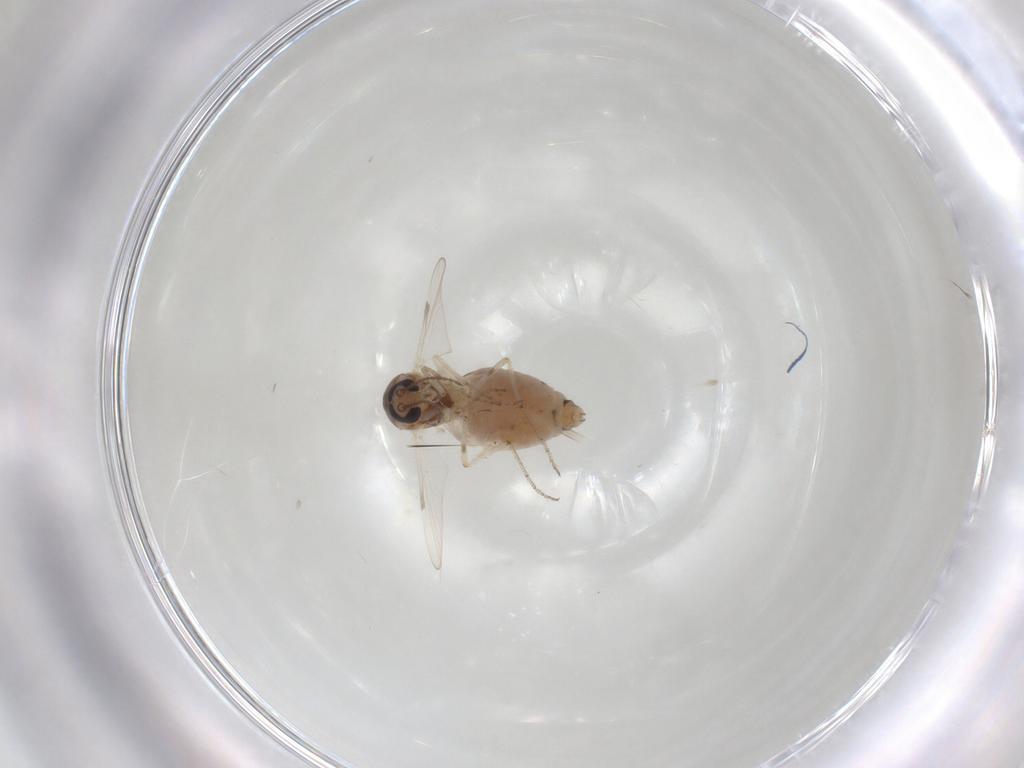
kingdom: Animalia
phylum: Arthropoda
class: Insecta
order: Diptera
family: Ceratopogonidae
